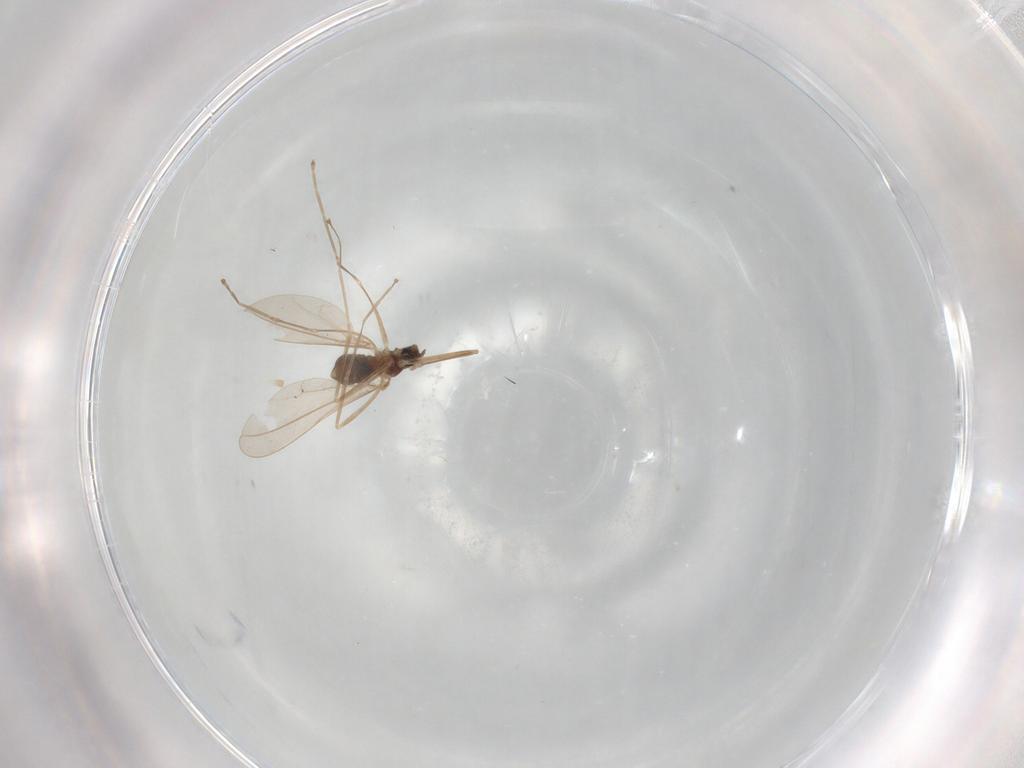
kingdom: Animalia
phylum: Arthropoda
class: Insecta
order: Diptera
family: Cecidomyiidae
